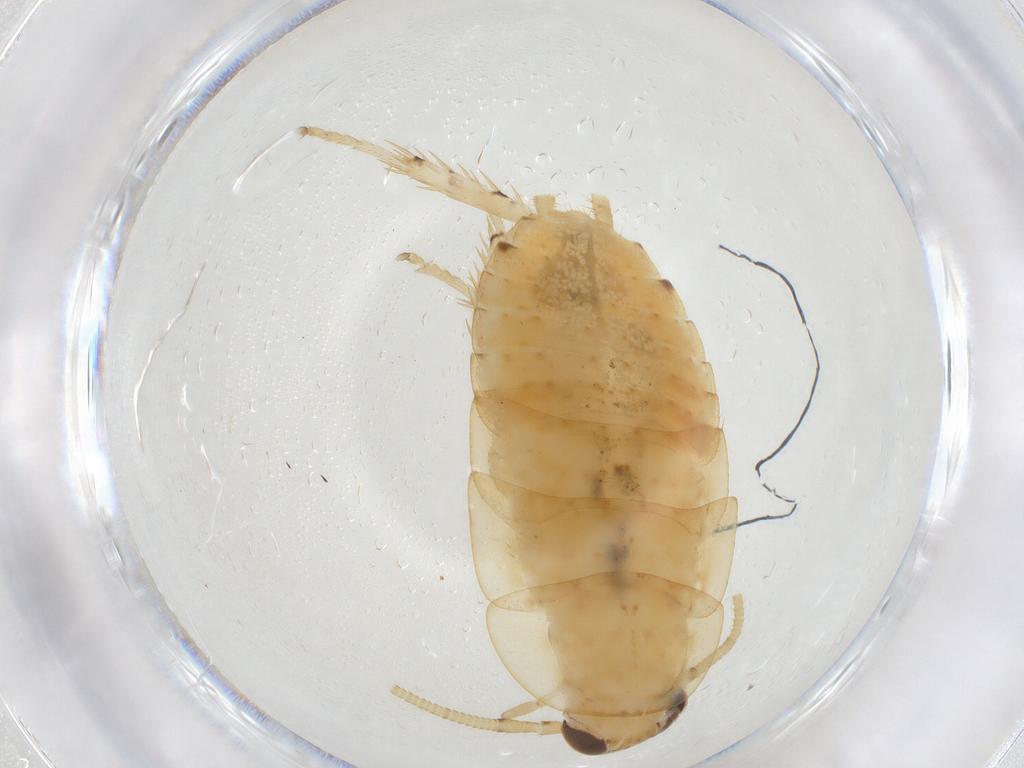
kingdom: Animalia
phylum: Arthropoda
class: Insecta
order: Blattodea
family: Ectobiidae
